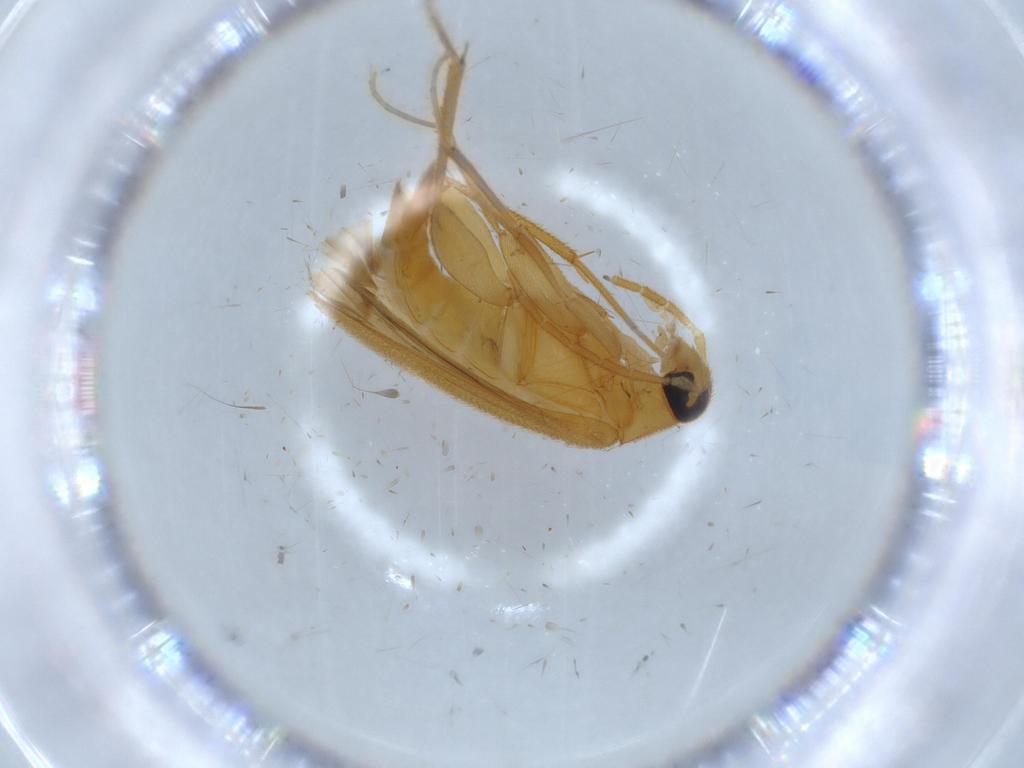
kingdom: Animalia
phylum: Arthropoda
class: Insecta
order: Coleoptera
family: Scraptiidae
